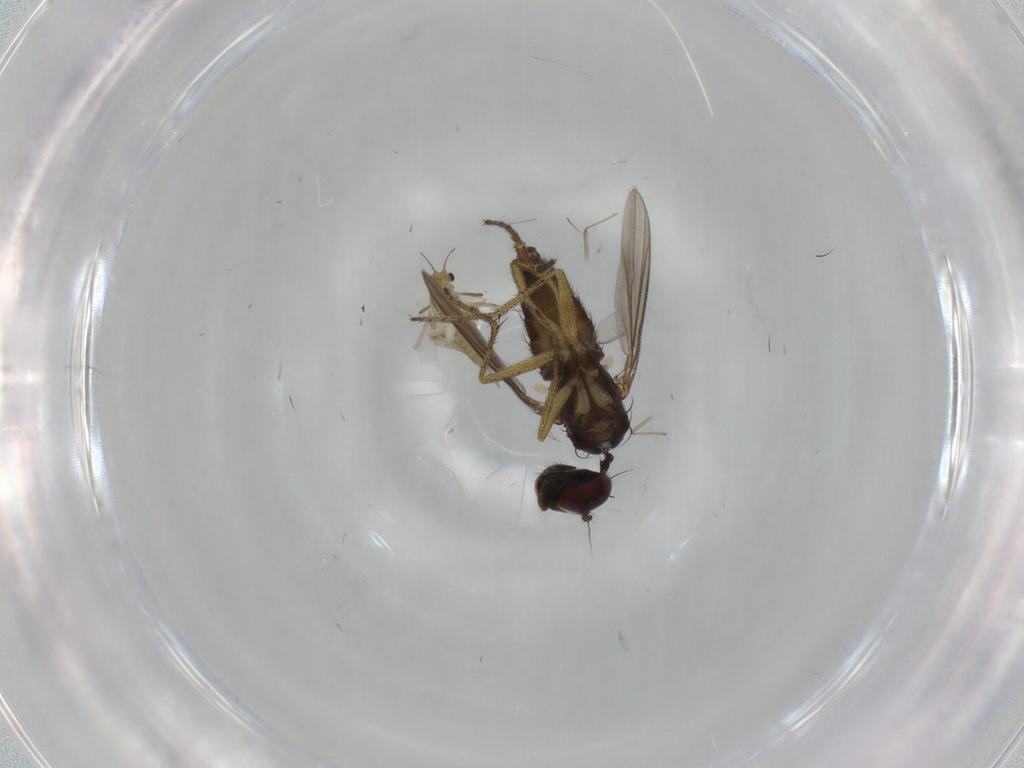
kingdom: Animalia
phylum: Arthropoda
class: Insecta
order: Diptera
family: Chironomidae
